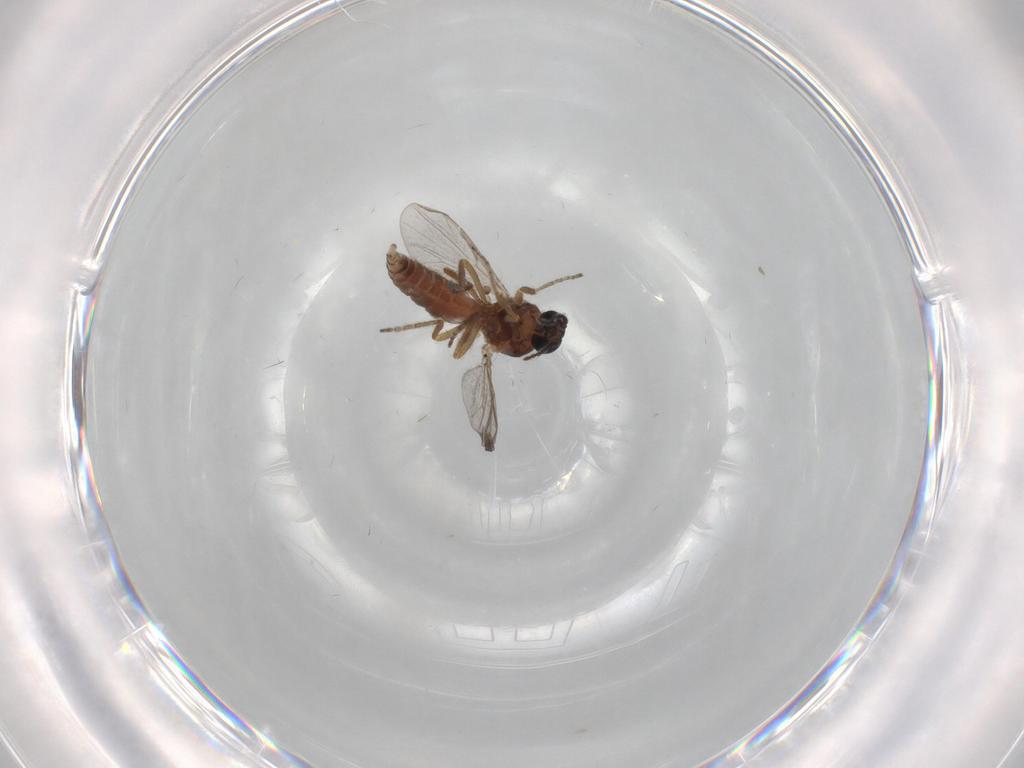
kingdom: Animalia
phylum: Arthropoda
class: Insecta
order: Diptera
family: Ceratopogonidae
